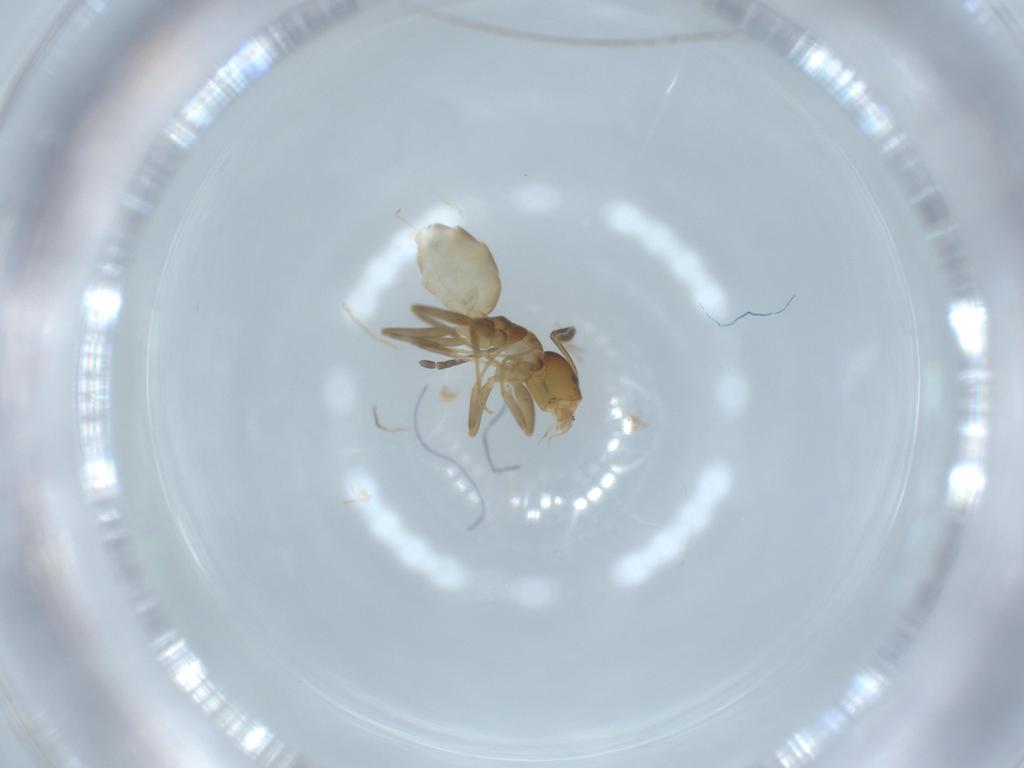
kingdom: Animalia
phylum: Arthropoda
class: Insecta
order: Hymenoptera
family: Formicidae
